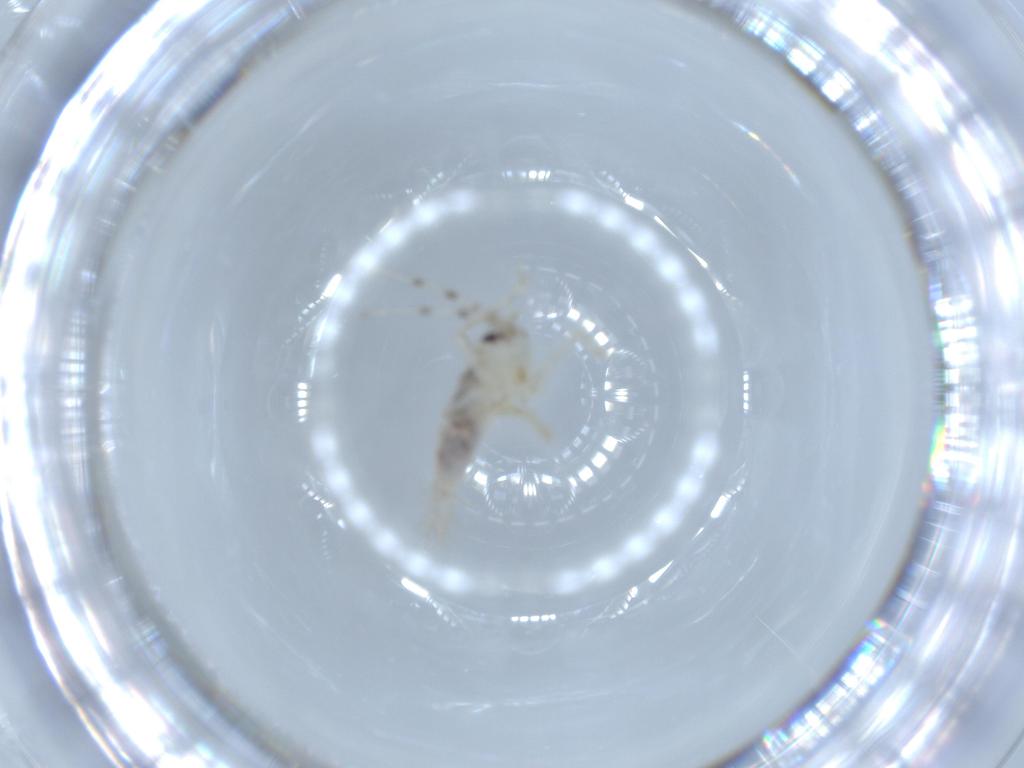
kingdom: Animalia
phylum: Arthropoda
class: Insecta
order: Orthoptera
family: Trigonidiidae
